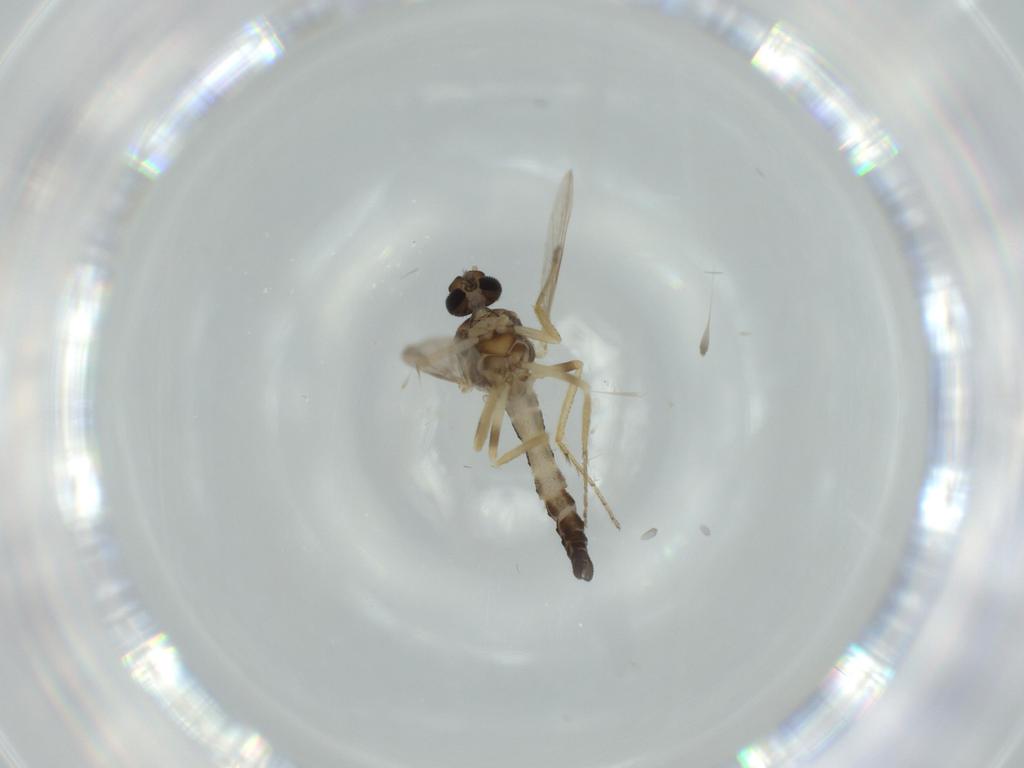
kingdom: Animalia
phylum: Arthropoda
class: Insecta
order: Diptera
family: Ceratopogonidae
